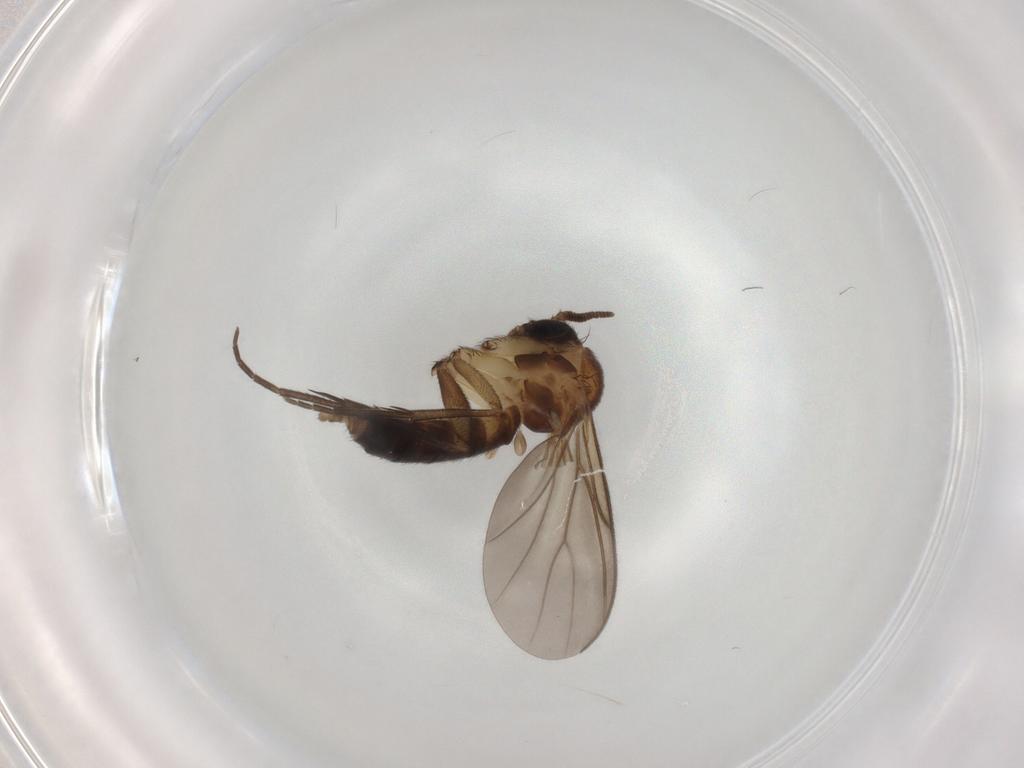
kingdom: Animalia
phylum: Arthropoda
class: Insecta
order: Diptera
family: Mycetophilidae
